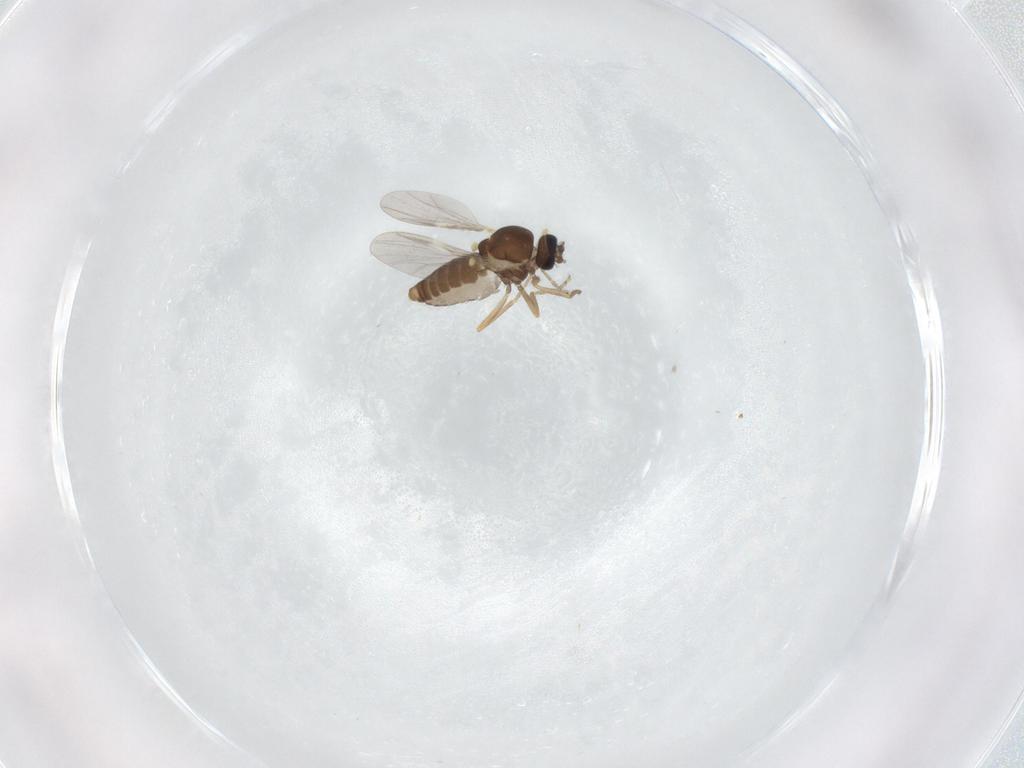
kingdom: Animalia
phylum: Arthropoda
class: Insecta
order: Diptera
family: Ceratopogonidae
